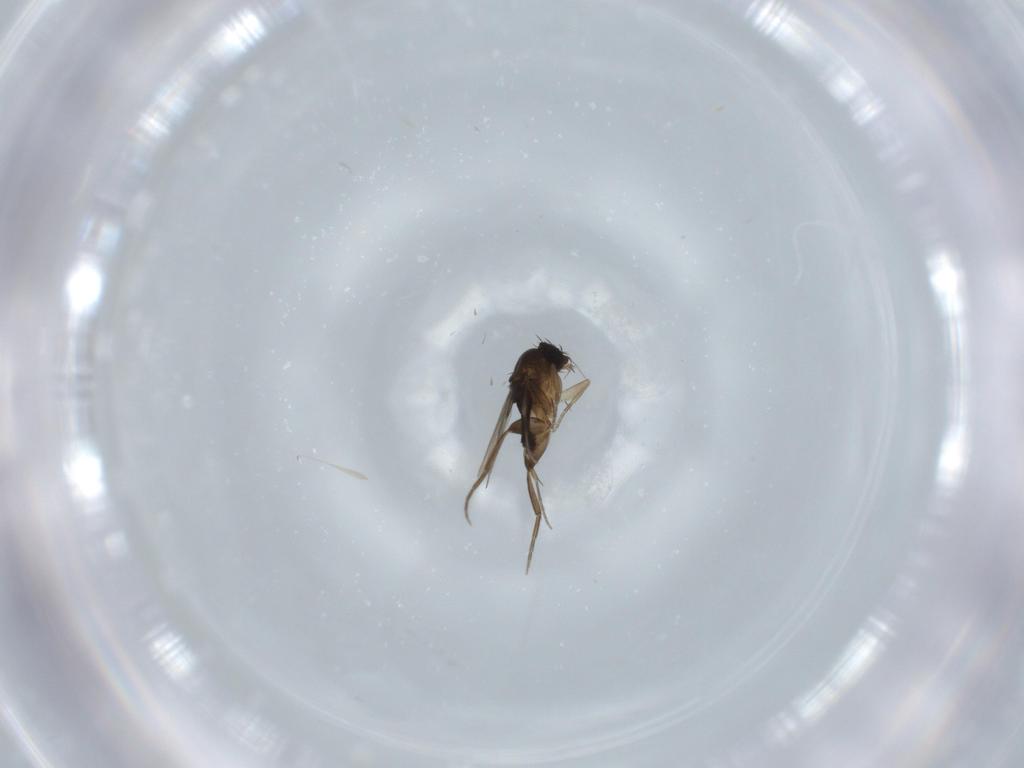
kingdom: Animalia
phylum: Arthropoda
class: Insecta
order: Diptera
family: Phoridae
